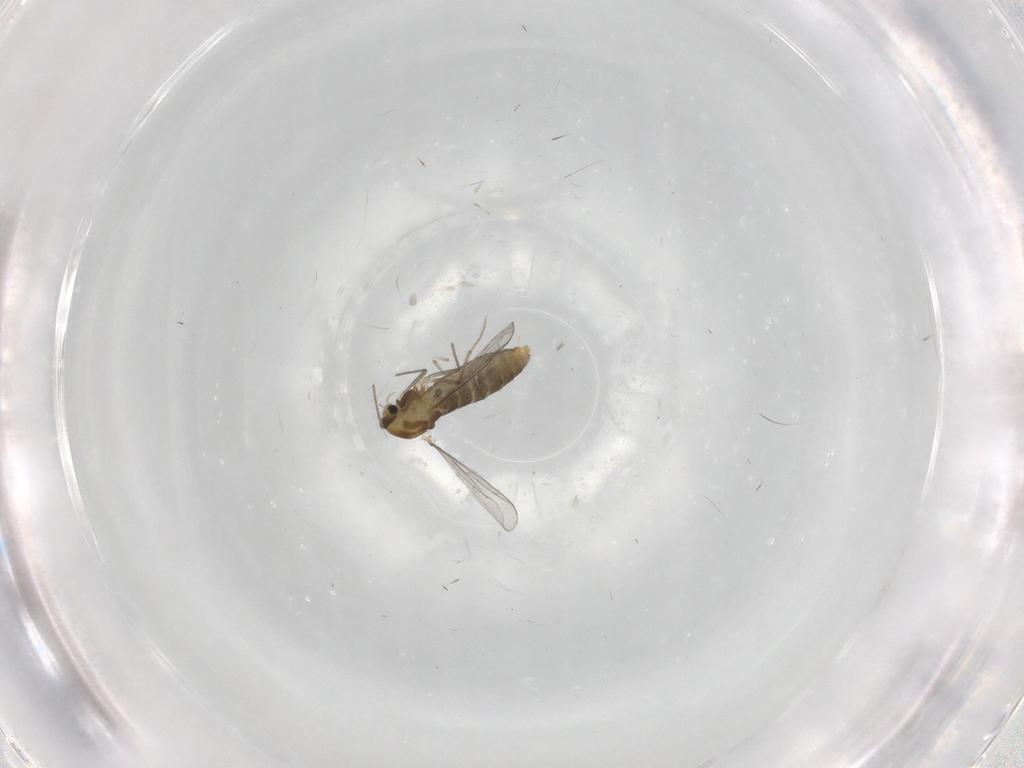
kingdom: Animalia
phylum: Arthropoda
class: Insecta
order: Diptera
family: Chironomidae
